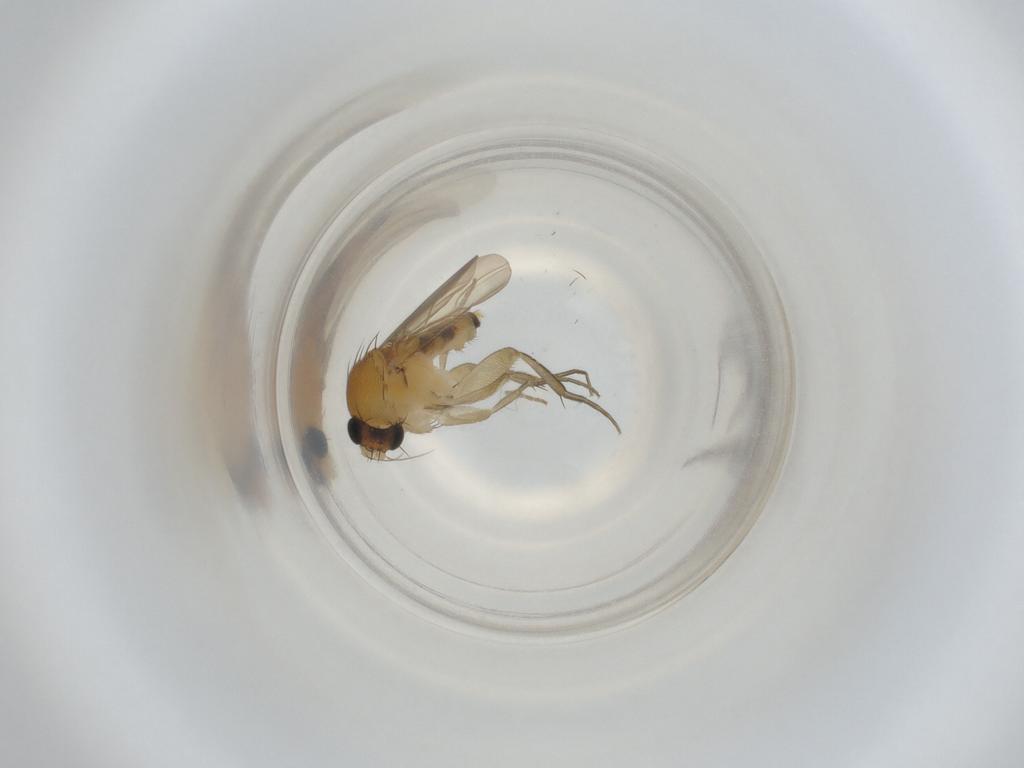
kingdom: Animalia
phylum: Arthropoda
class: Insecta
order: Diptera
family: Phoridae
